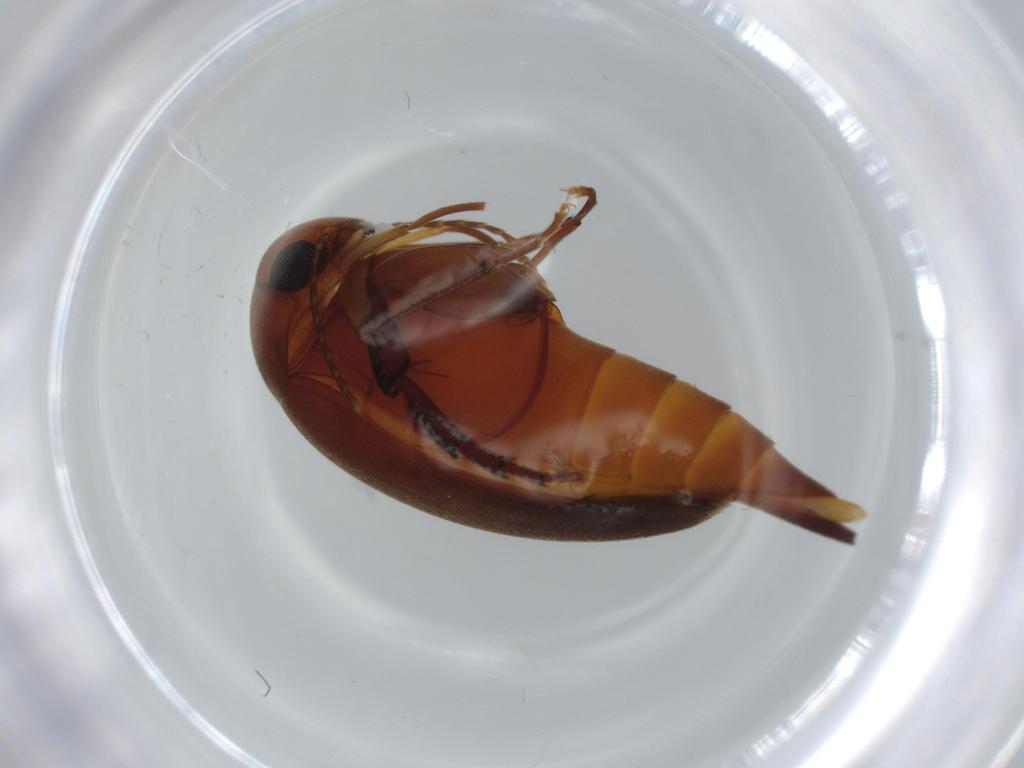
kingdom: Animalia
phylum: Arthropoda
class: Insecta
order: Coleoptera
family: Mordellidae
